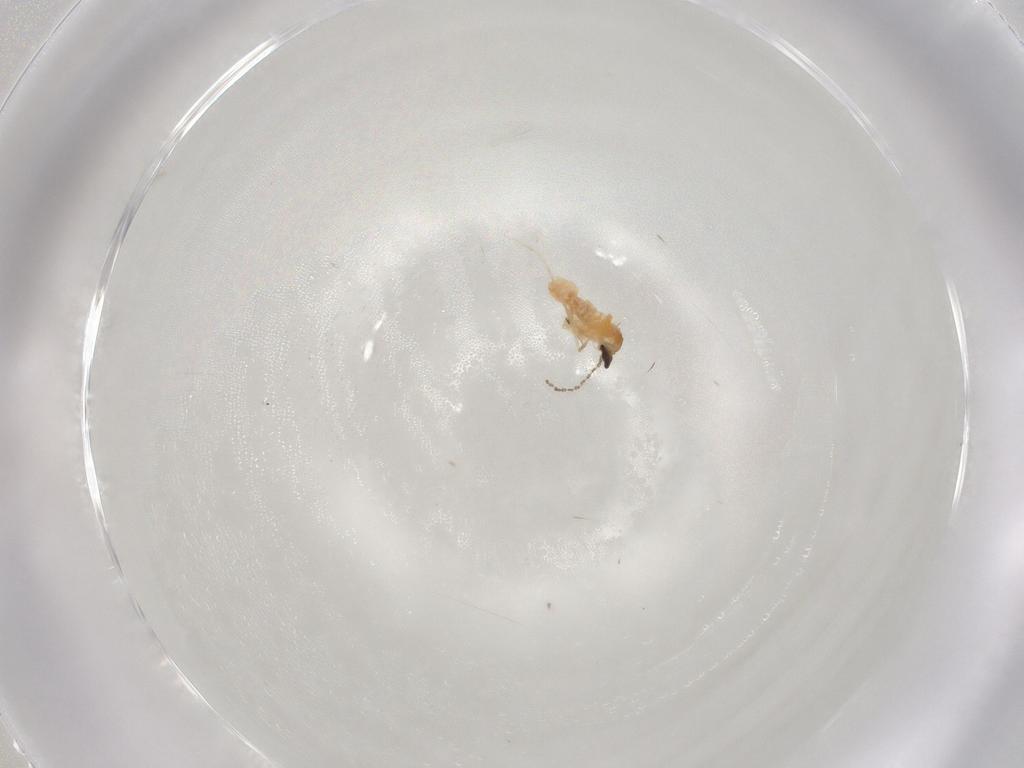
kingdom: Animalia
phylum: Arthropoda
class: Insecta
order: Diptera
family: Cecidomyiidae
